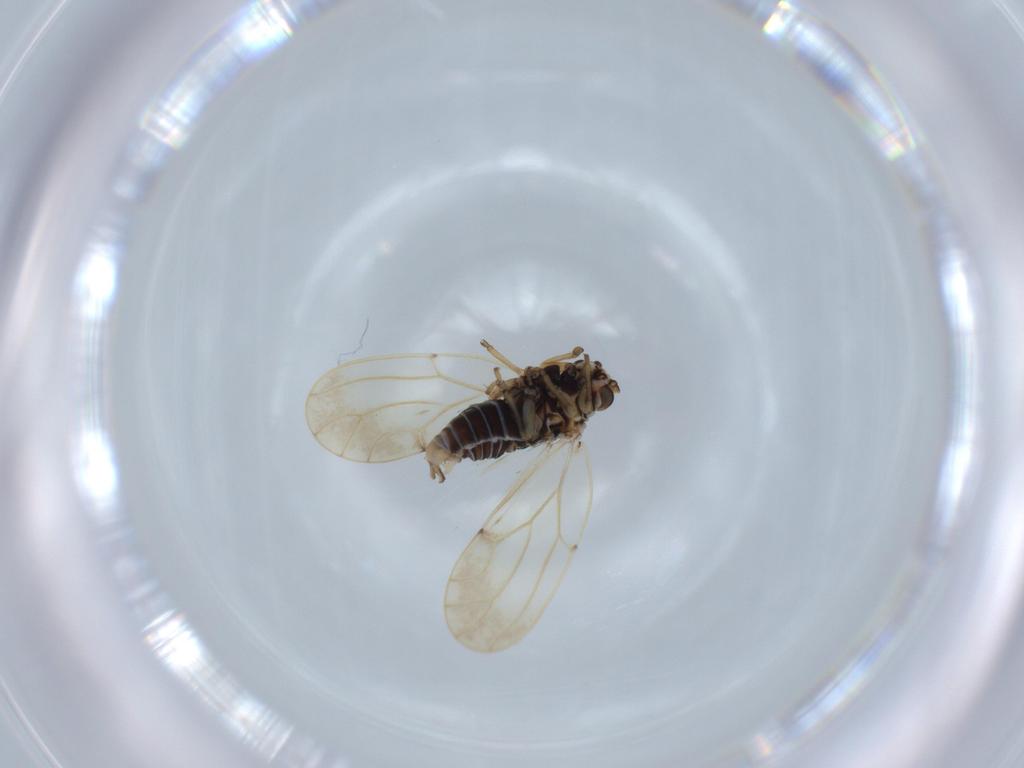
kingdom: Animalia
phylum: Arthropoda
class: Insecta
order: Hemiptera
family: Aphalaridae
